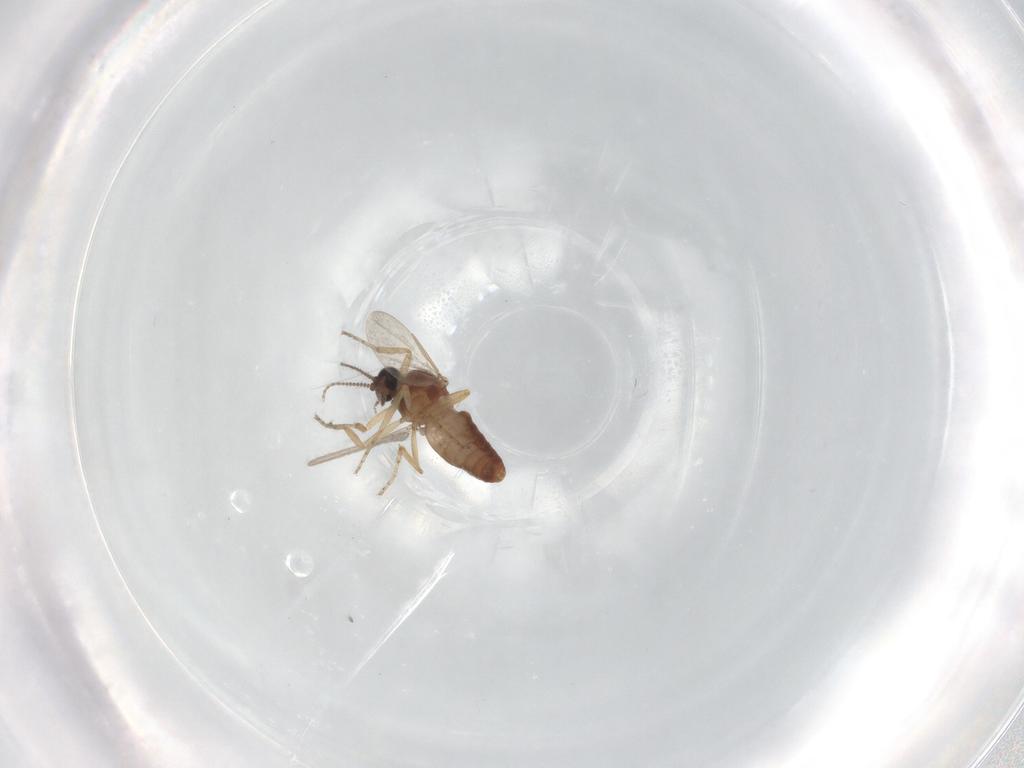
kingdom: Animalia
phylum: Arthropoda
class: Insecta
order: Diptera
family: Ceratopogonidae
